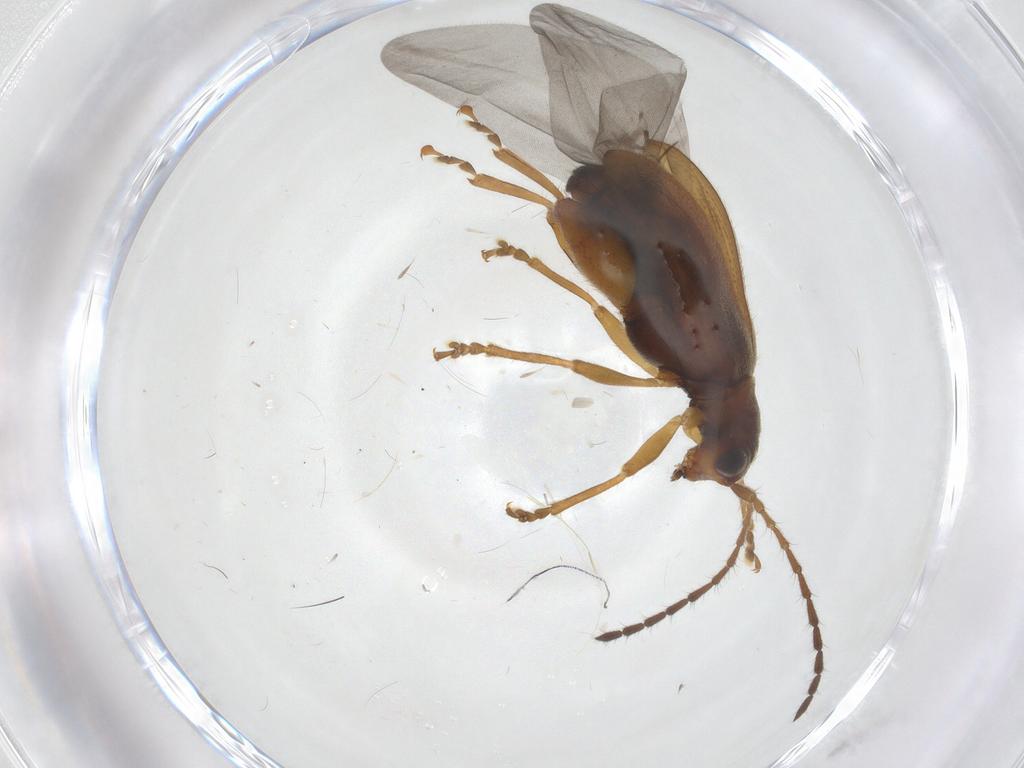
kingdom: Animalia
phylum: Arthropoda
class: Insecta
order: Coleoptera
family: Chrysomelidae
